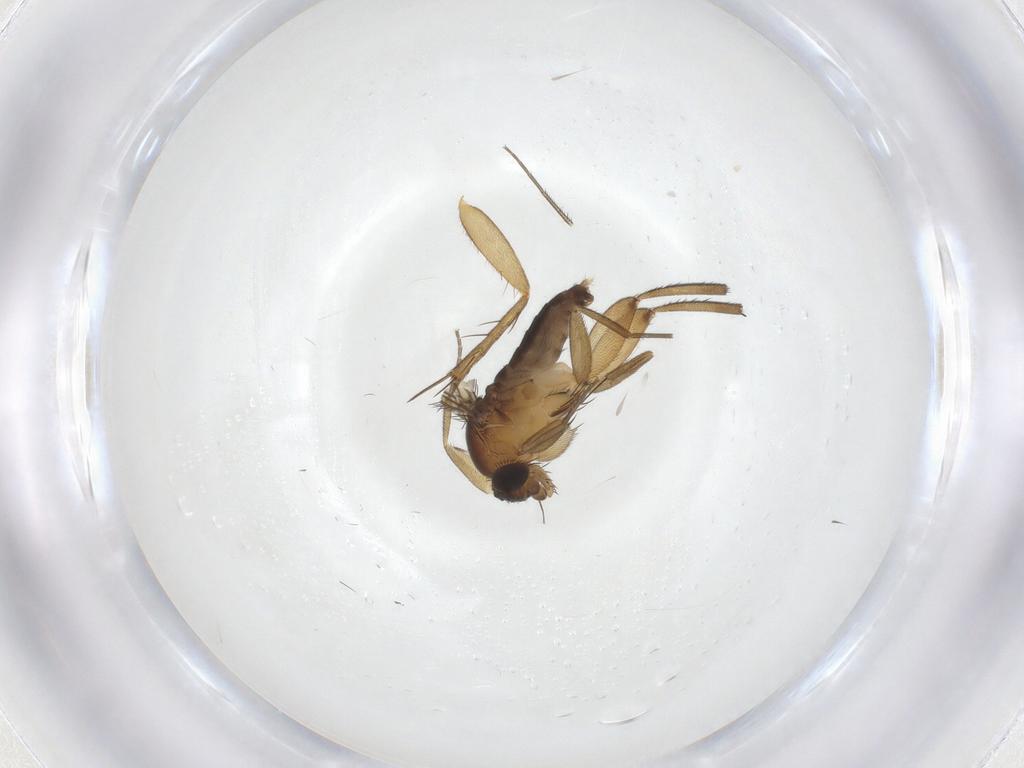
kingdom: Animalia
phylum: Arthropoda
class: Insecta
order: Diptera
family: Phoridae
